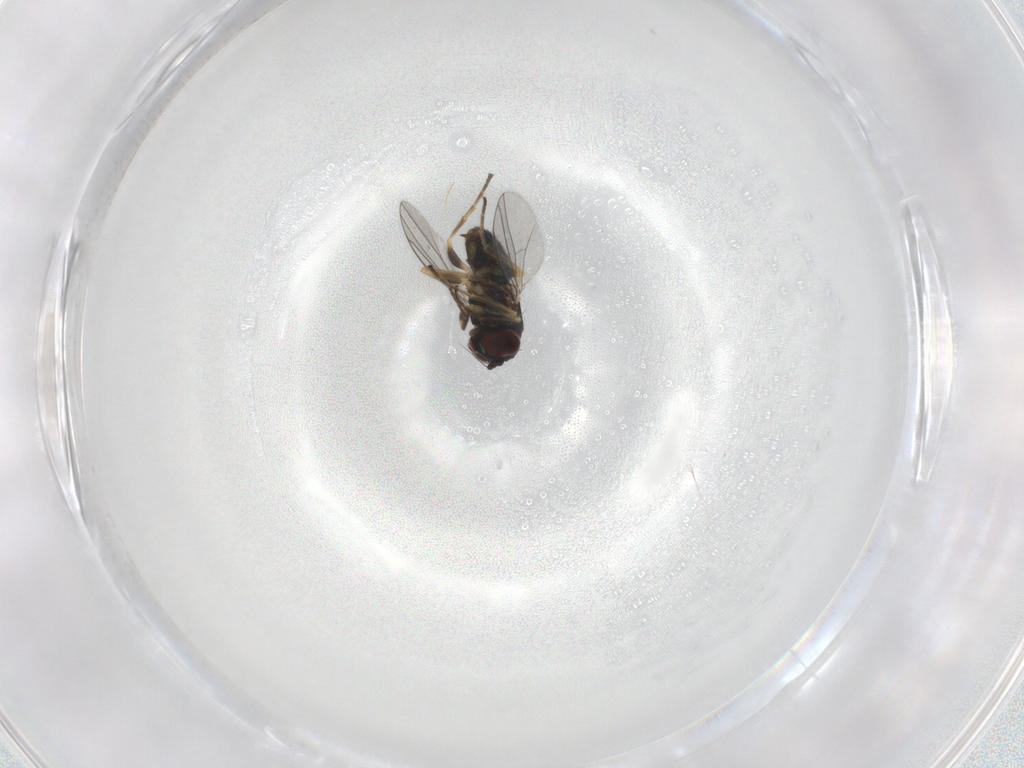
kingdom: Animalia
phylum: Arthropoda
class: Insecta
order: Diptera
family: Dolichopodidae
